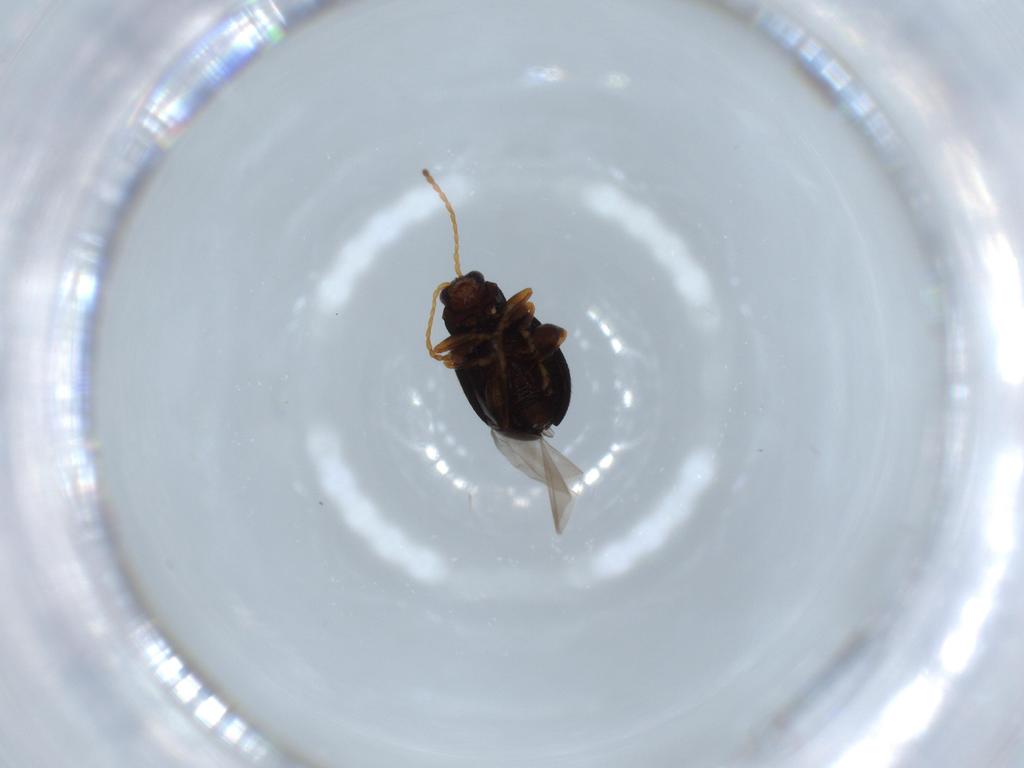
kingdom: Animalia
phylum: Arthropoda
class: Insecta
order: Coleoptera
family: Chrysomelidae
